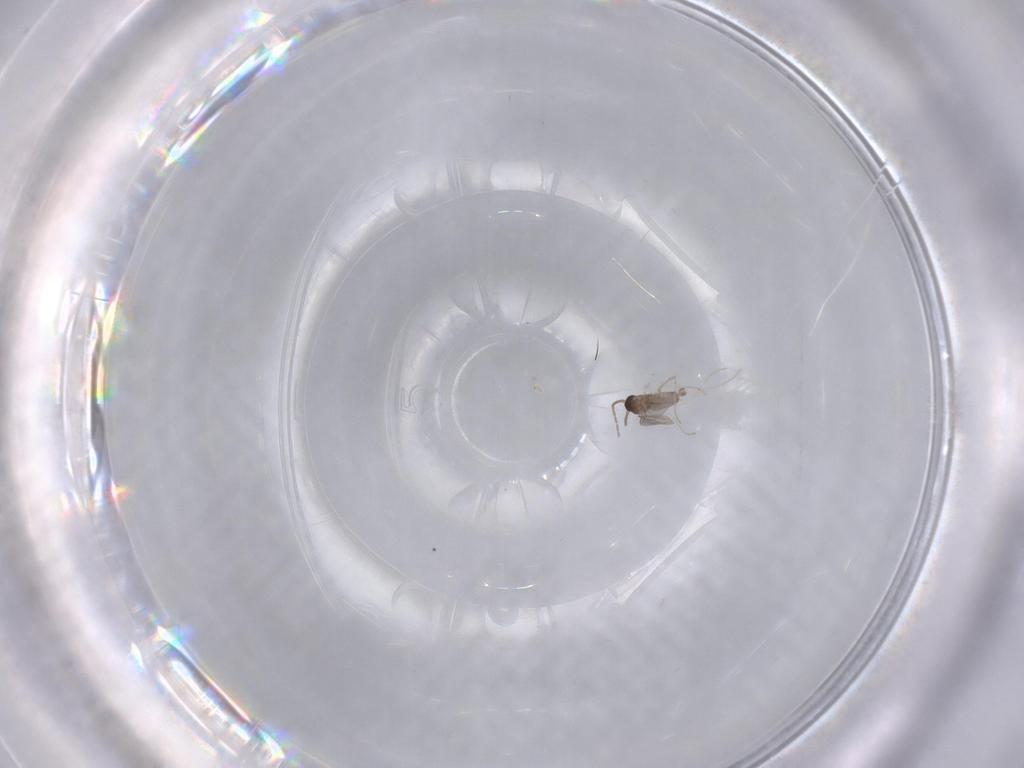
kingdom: Animalia
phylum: Arthropoda
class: Insecta
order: Diptera
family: Cecidomyiidae
